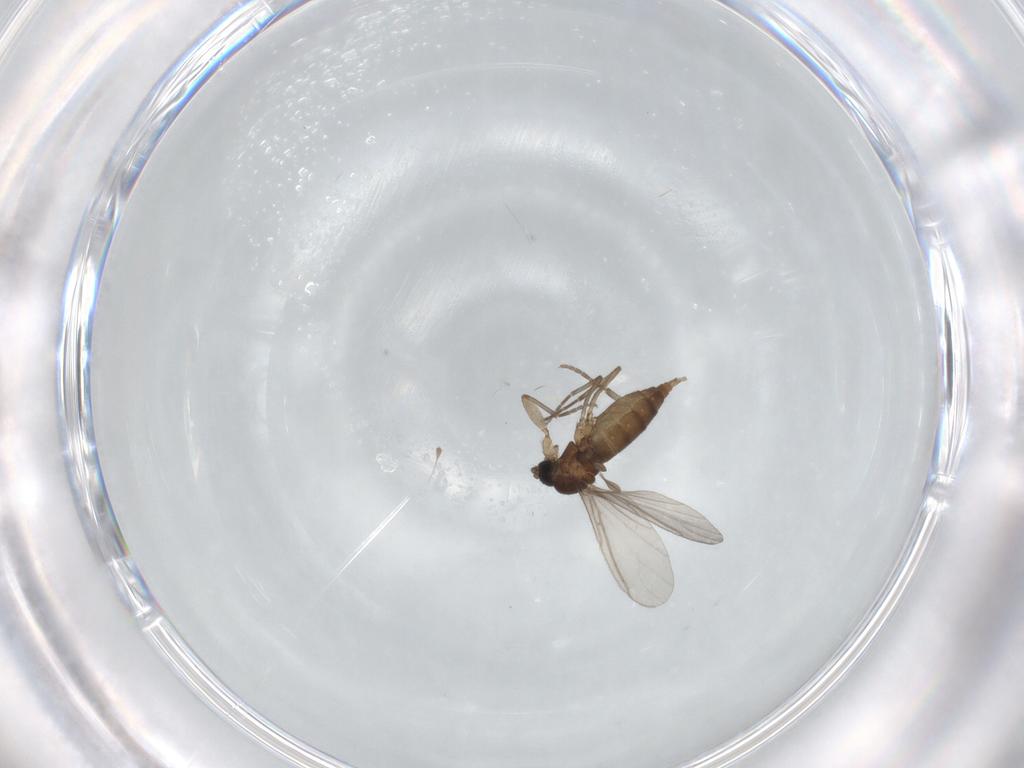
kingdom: Animalia
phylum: Arthropoda
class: Insecta
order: Diptera
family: Sciaridae
